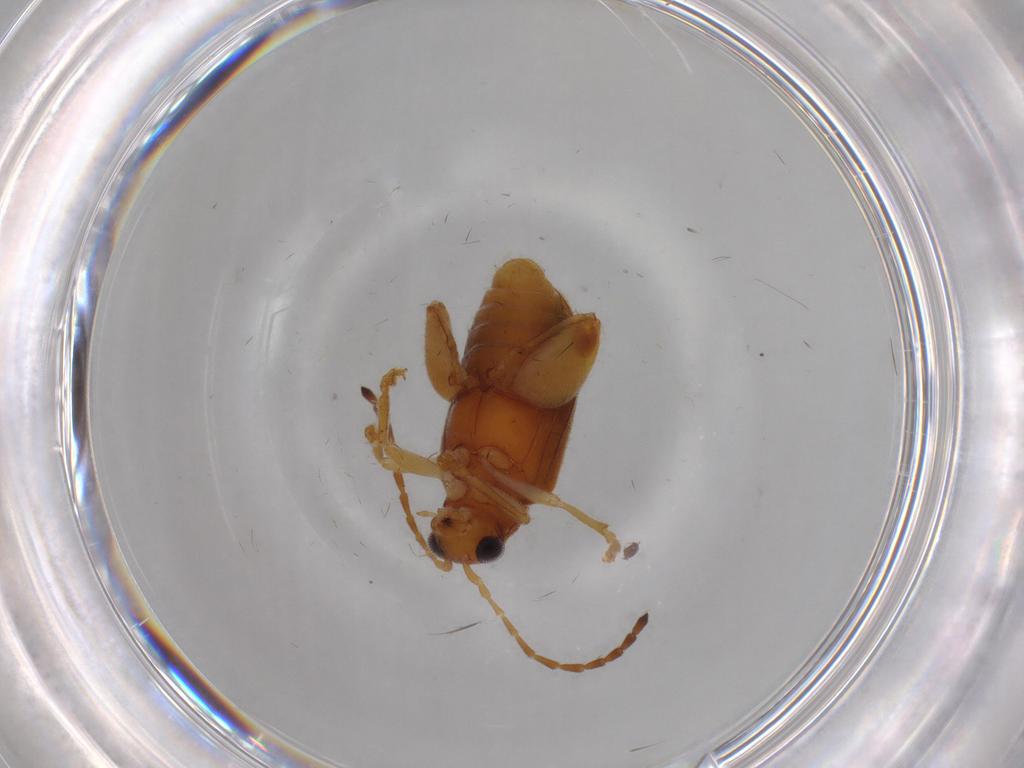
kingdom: Animalia
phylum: Arthropoda
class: Insecta
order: Coleoptera
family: Chrysomelidae
